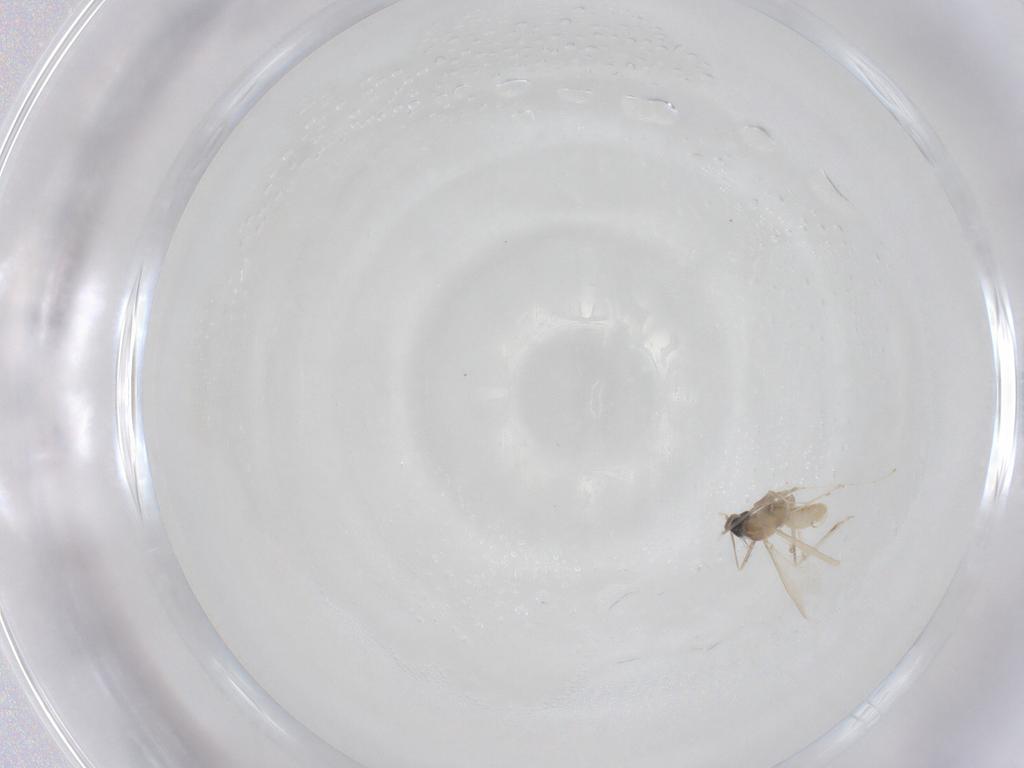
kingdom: Animalia
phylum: Arthropoda
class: Insecta
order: Diptera
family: Cecidomyiidae
